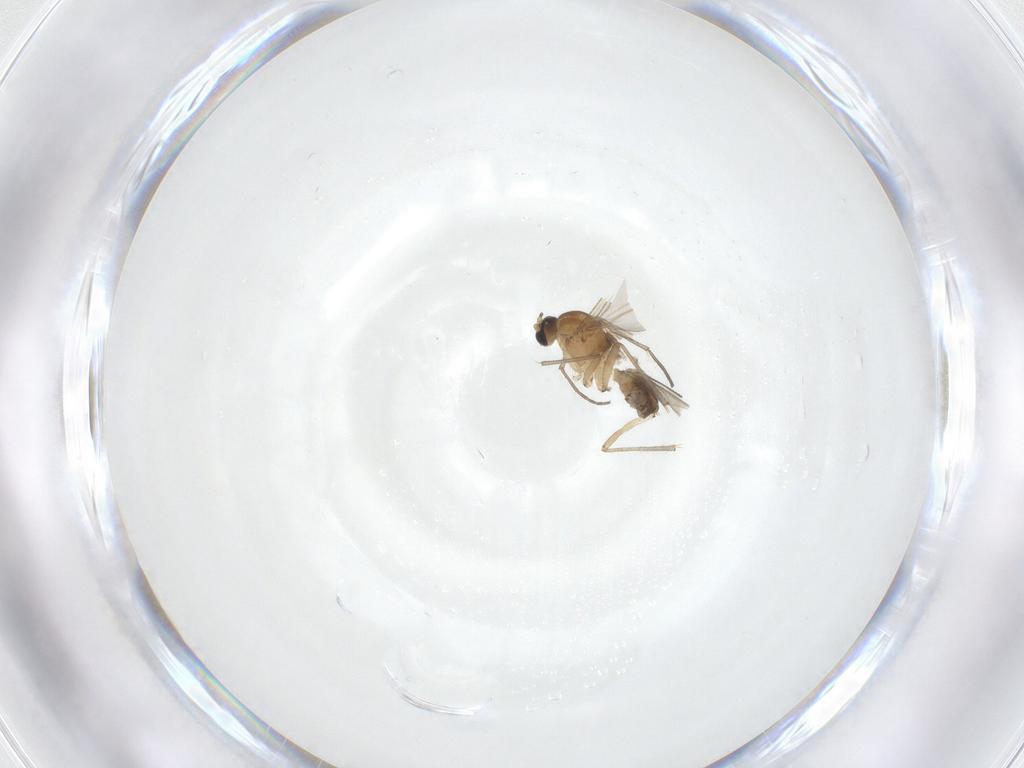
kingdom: Animalia
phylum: Arthropoda
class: Insecta
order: Diptera
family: Sciaridae
